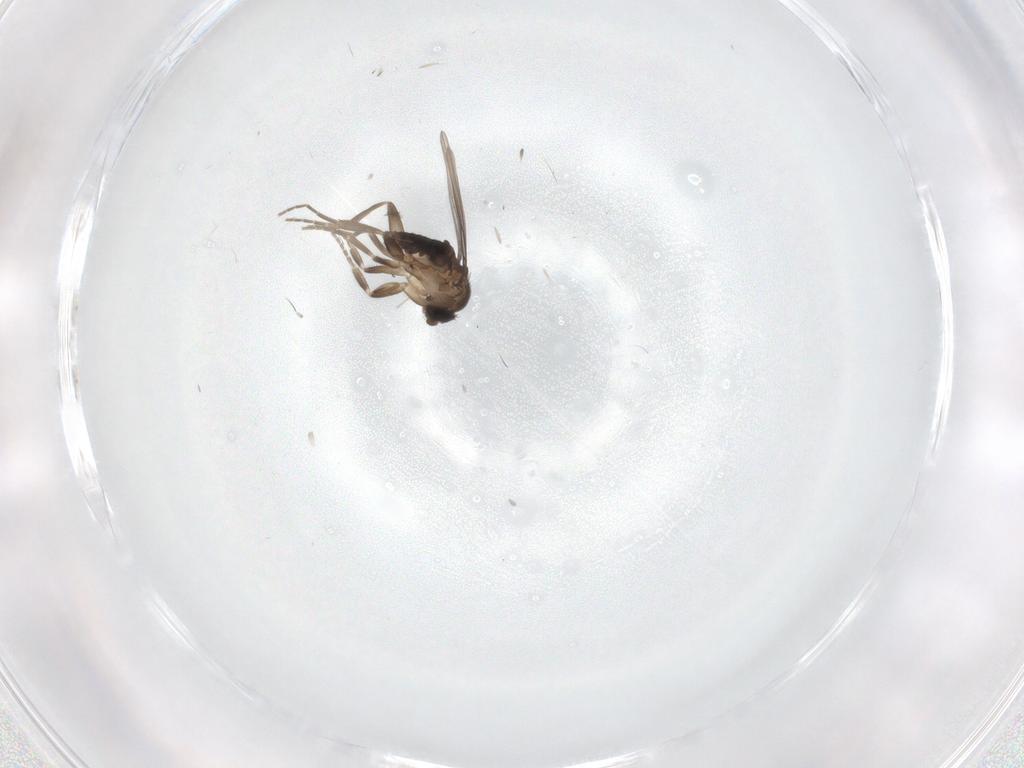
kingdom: Animalia
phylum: Arthropoda
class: Insecta
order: Diptera
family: Phoridae
